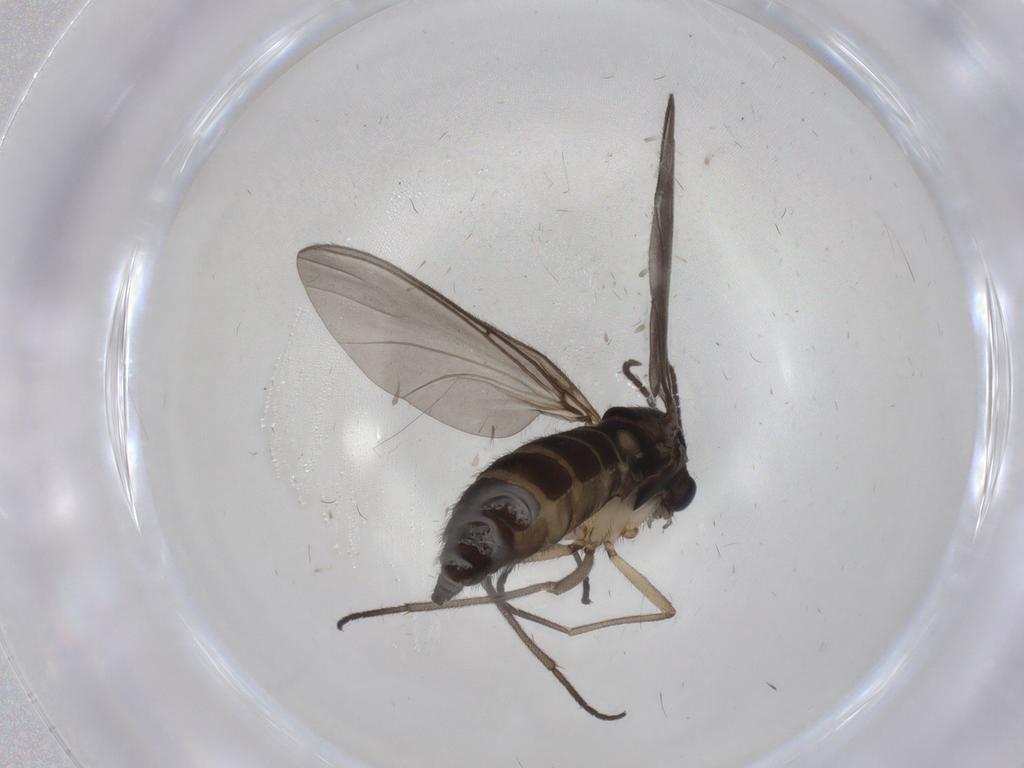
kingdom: Animalia
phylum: Arthropoda
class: Insecta
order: Diptera
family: Sciaridae
